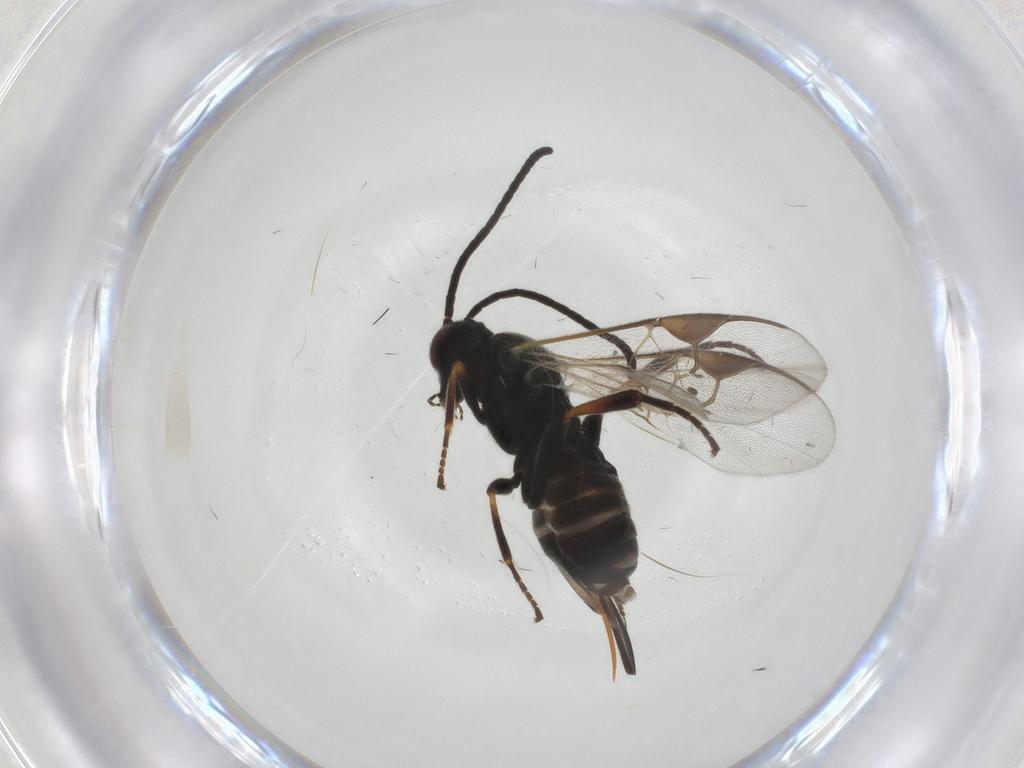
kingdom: Animalia
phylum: Arthropoda
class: Insecta
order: Hymenoptera
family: Braconidae
